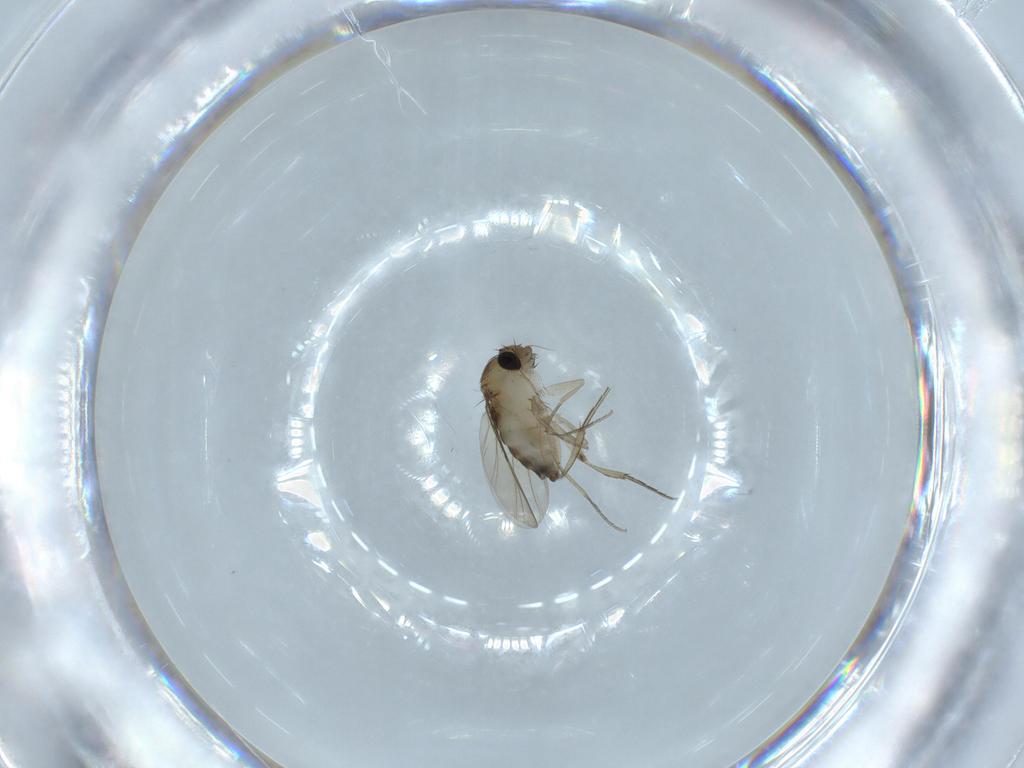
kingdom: Animalia
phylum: Arthropoda
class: Insecta
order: Diptera
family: Phoridae
